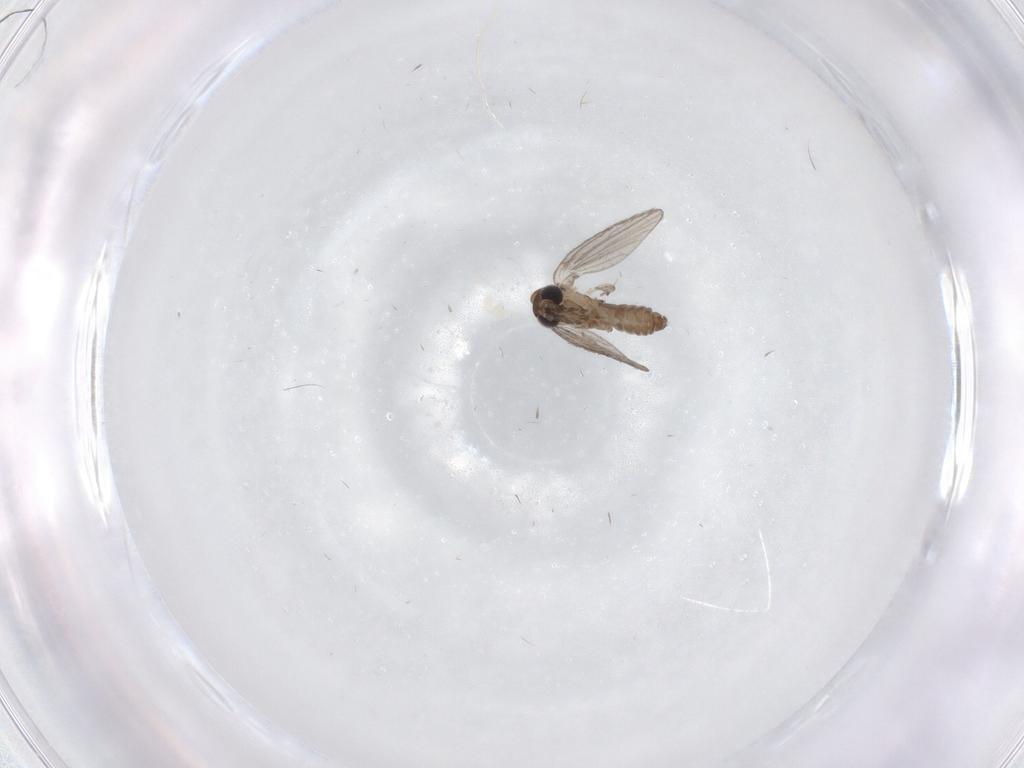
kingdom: Animalia
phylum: Arthropoda
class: Insecta
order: Diptera
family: Psychodidae
